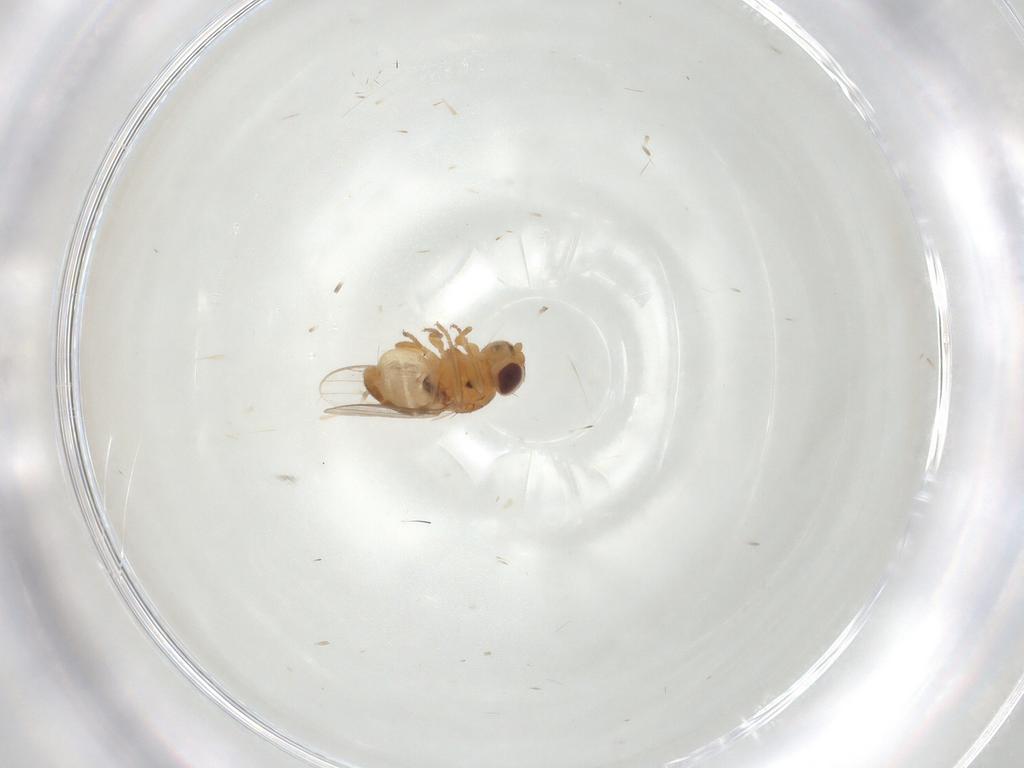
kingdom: Animalia
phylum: Arthropoda
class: Insecta
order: Diptera
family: Chloropidae
